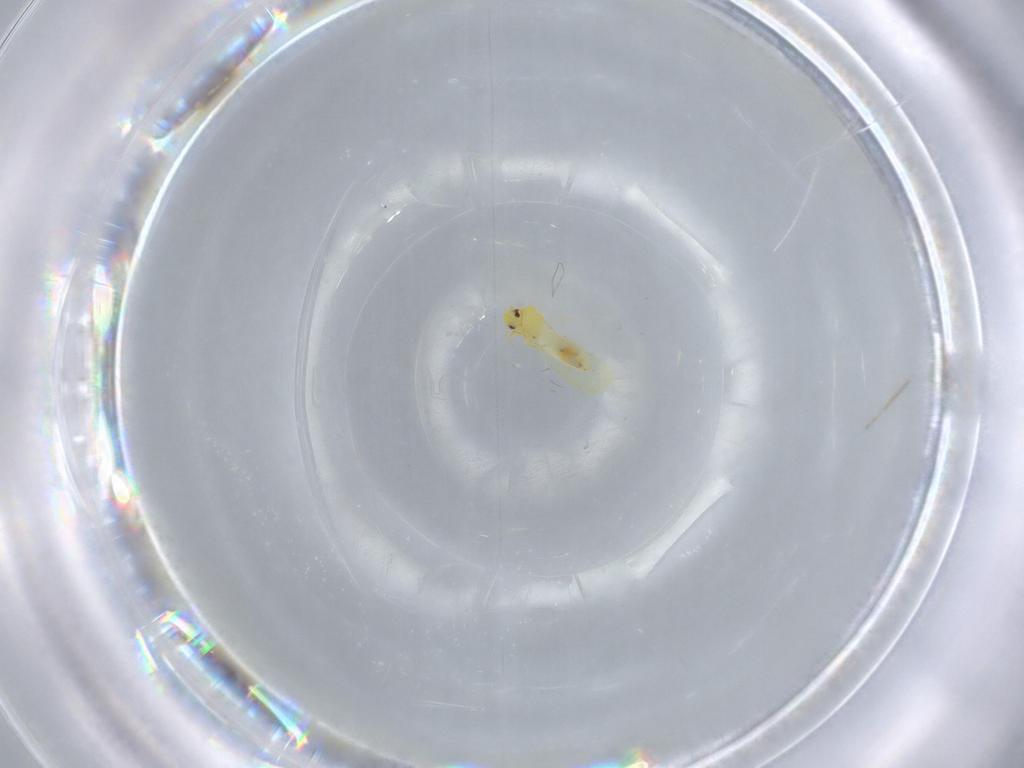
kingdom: Animalia
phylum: Arthropoda
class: Insecta
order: Hemiptera
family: Aleyrodidae
